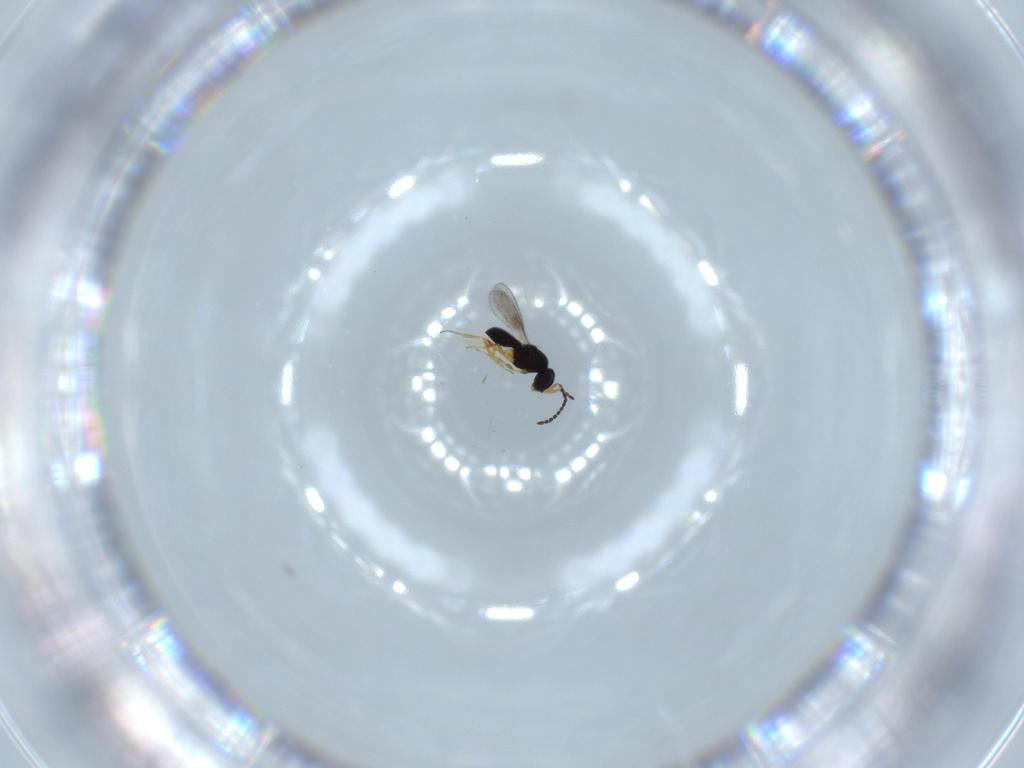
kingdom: Animalia
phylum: Arthropoda
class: Insecta
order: Hymenoptera
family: Scelionidae
